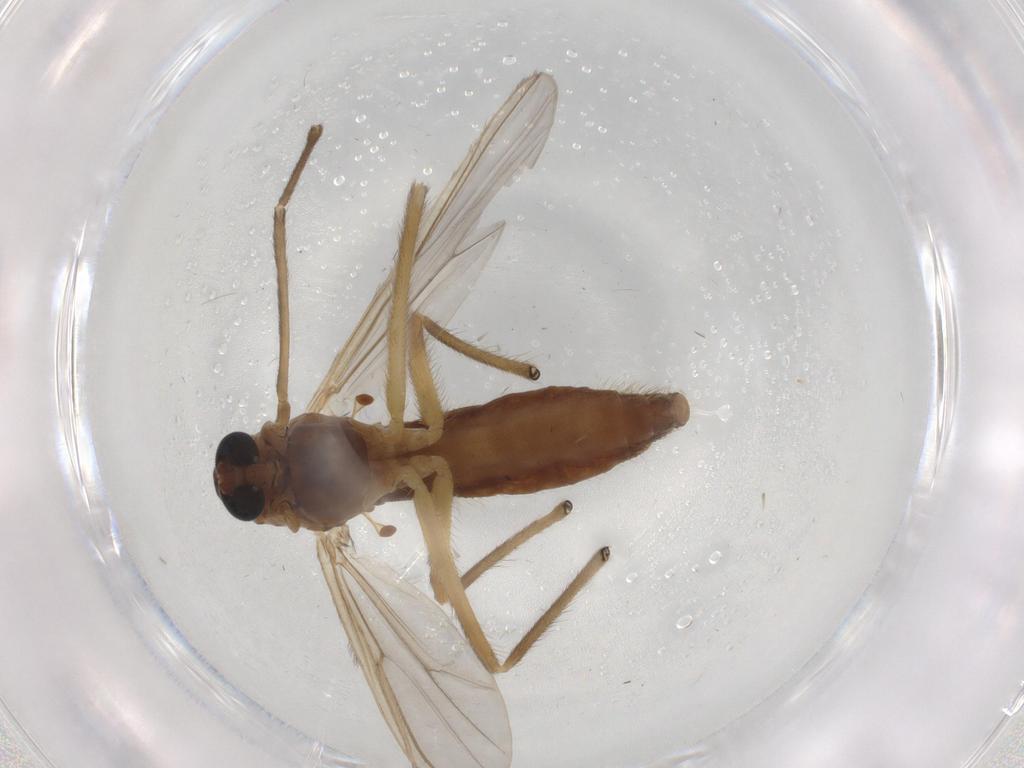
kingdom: Animalia
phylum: Arthropoda
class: Insecta
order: Diptera
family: Chironomidae
